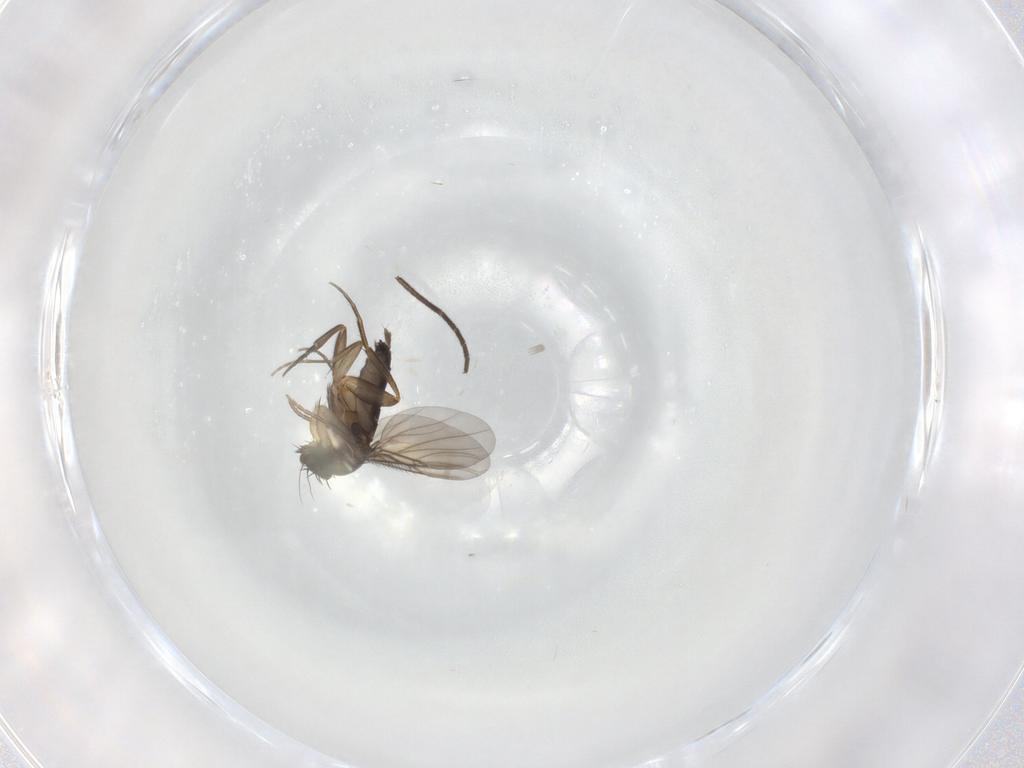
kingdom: Animalia
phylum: Arthropoda
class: Insecta
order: Diptera
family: Phoridae
